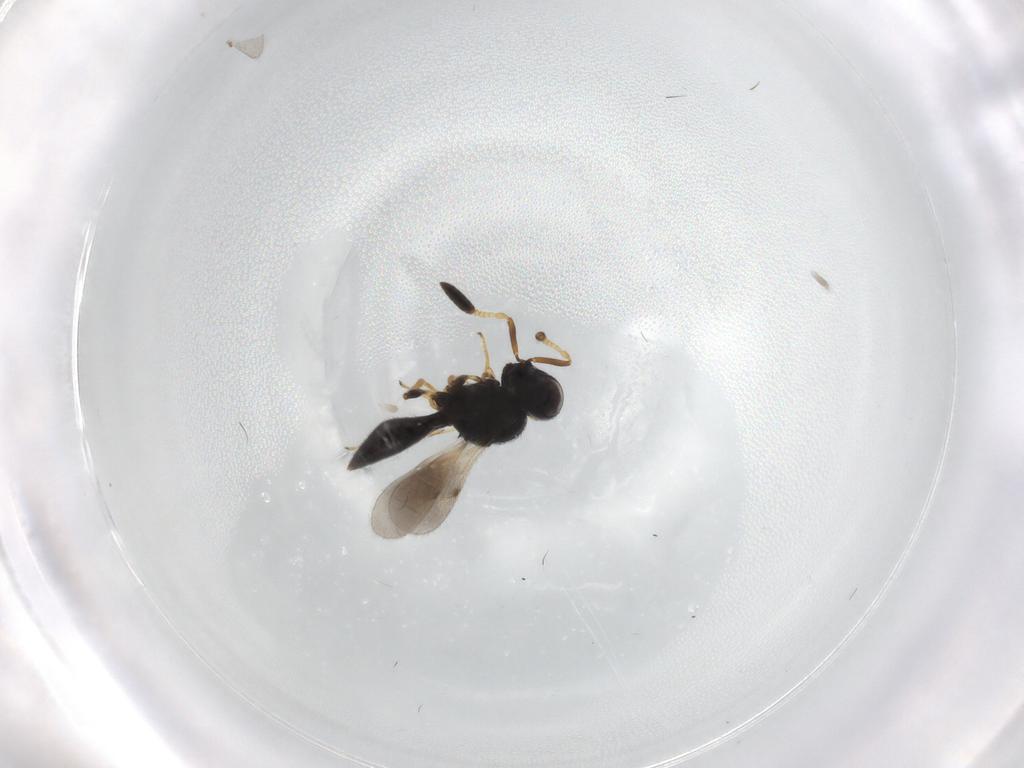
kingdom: Animalia
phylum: Arthropoda
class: Insecta
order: Hymenoptera
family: Scelionidae
